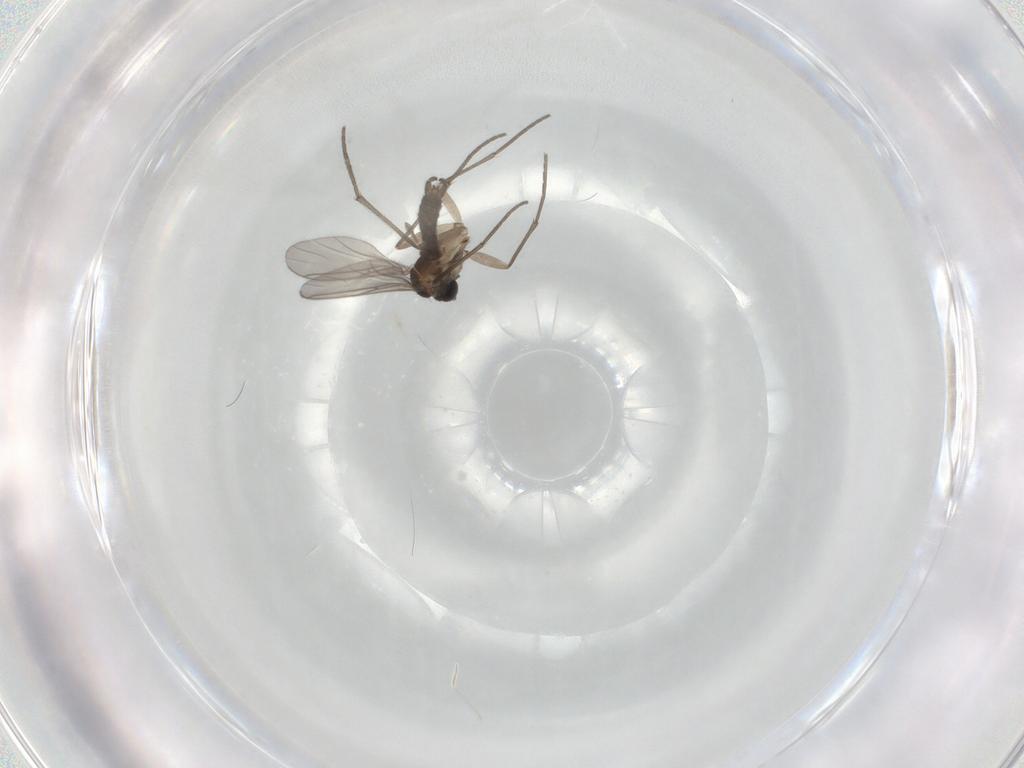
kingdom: Animalia
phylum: Arthropoda
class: Insecta
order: Diptera
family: Sciaridae
